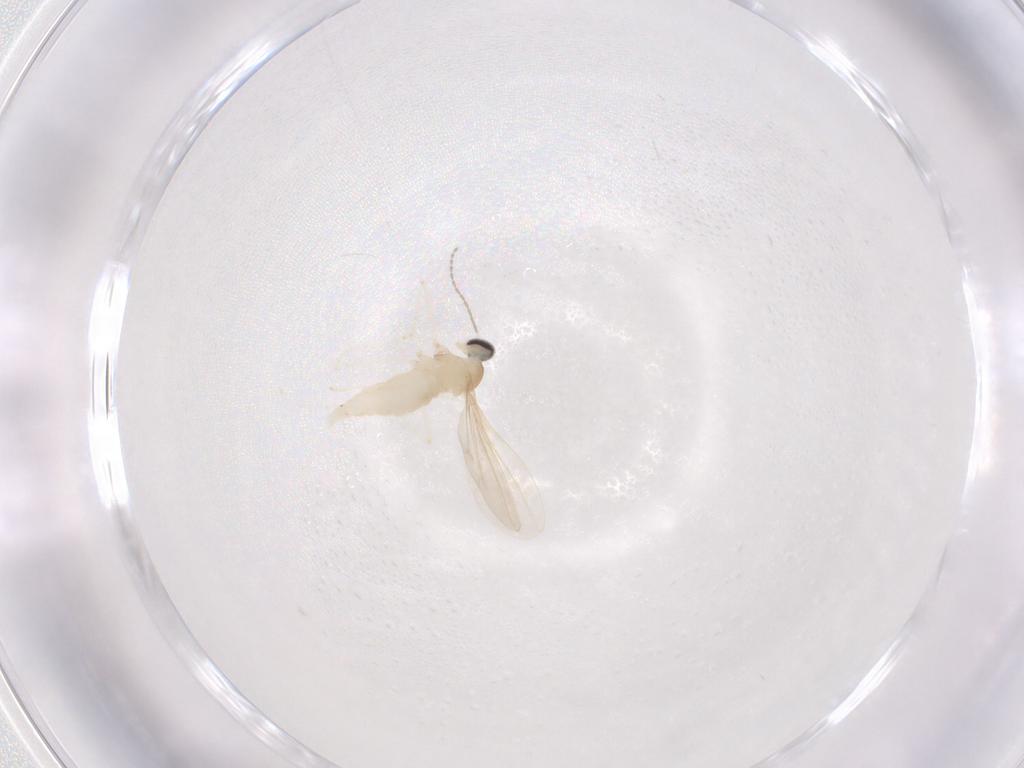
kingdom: Animalia
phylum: Arthropoda
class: Insecta
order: Diptera
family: Cecidomyiidae
